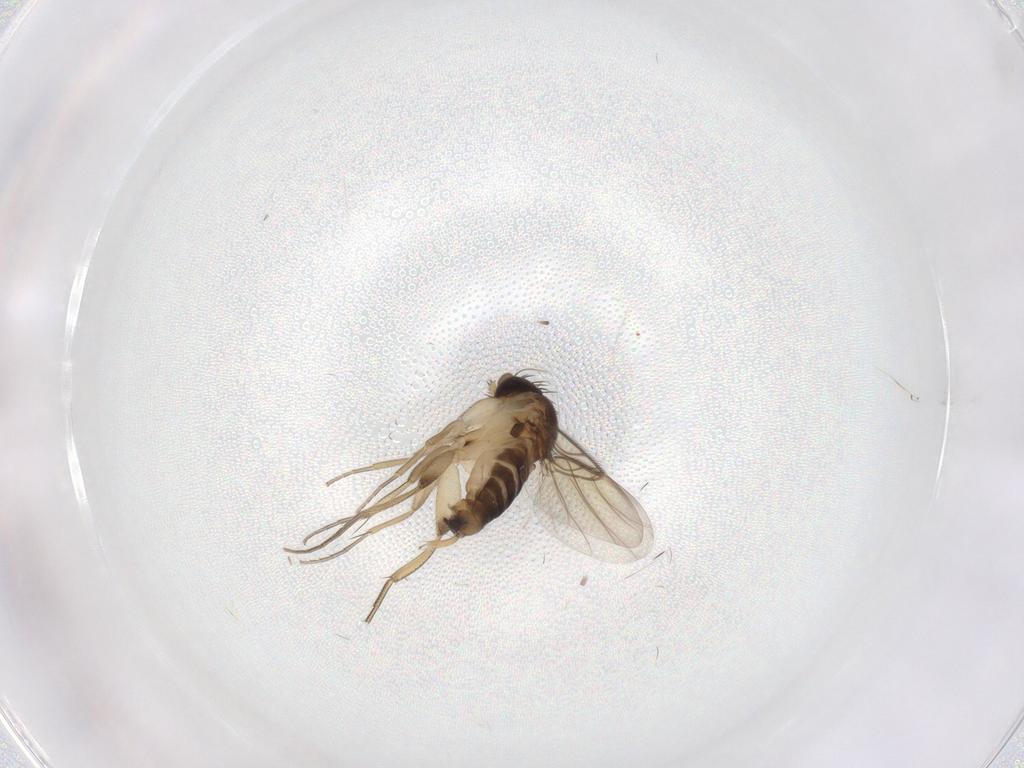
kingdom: Animalia
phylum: Arthropoda
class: Insecta
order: Diptera
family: Phoridae
